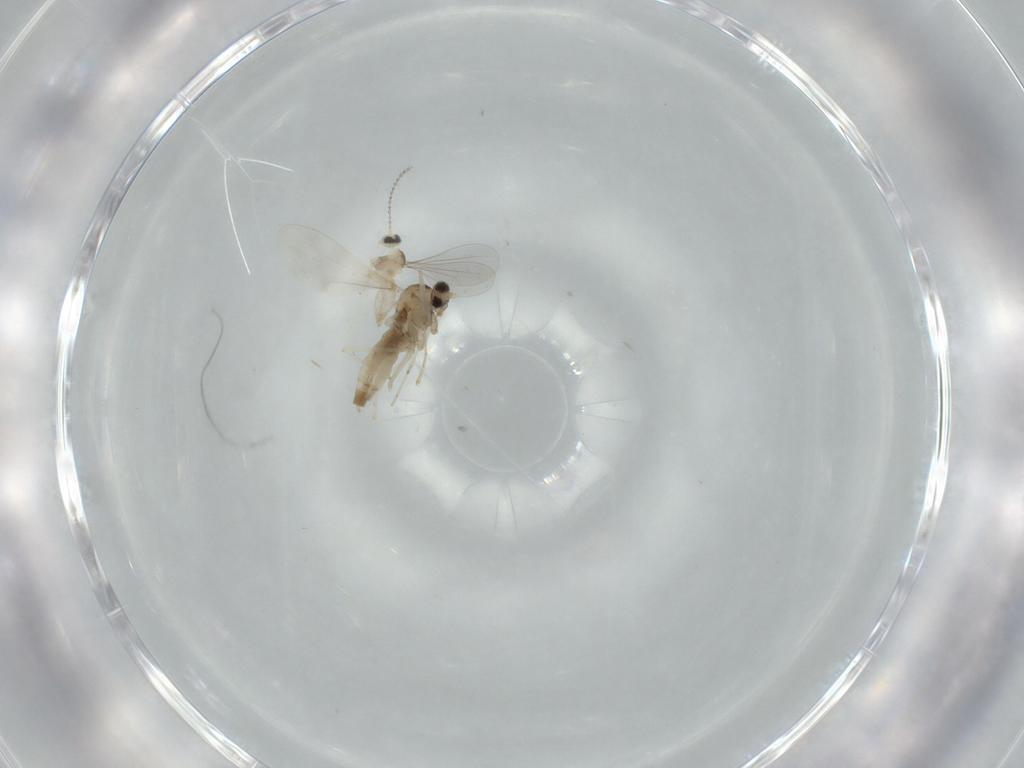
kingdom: Animalia
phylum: Arthropoda
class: Insecta
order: Diptera
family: Cecidomyiidae
